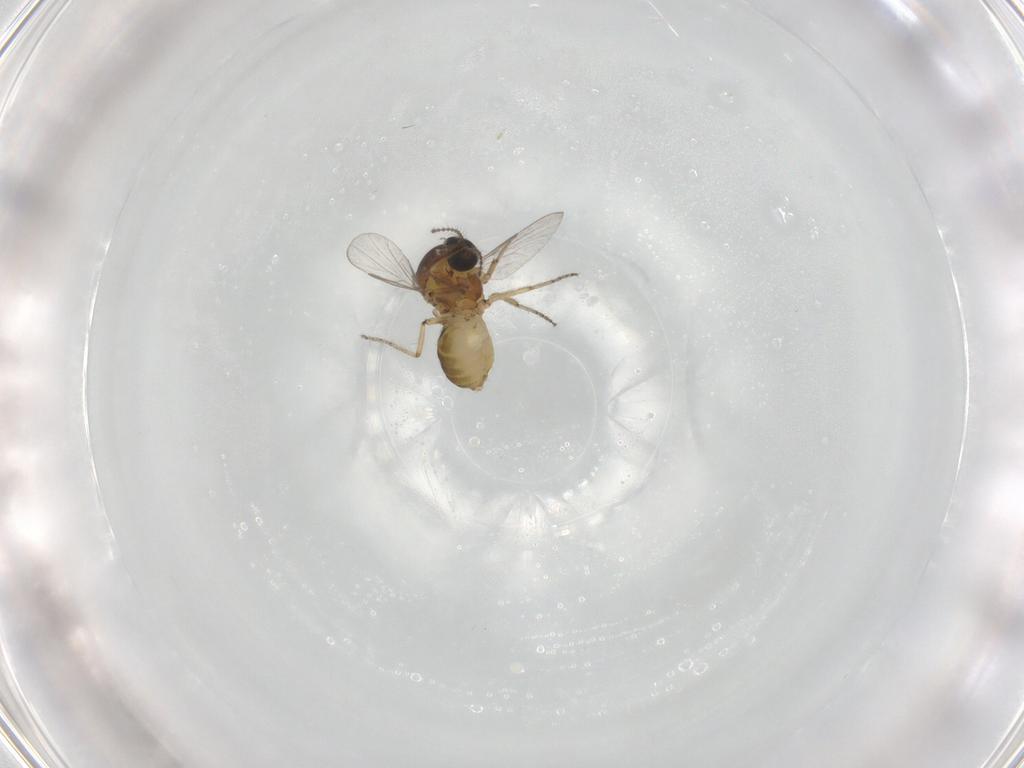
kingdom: Animalia
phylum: Arthropoda
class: Insecta
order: Diptera
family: Ceratopogonidae
